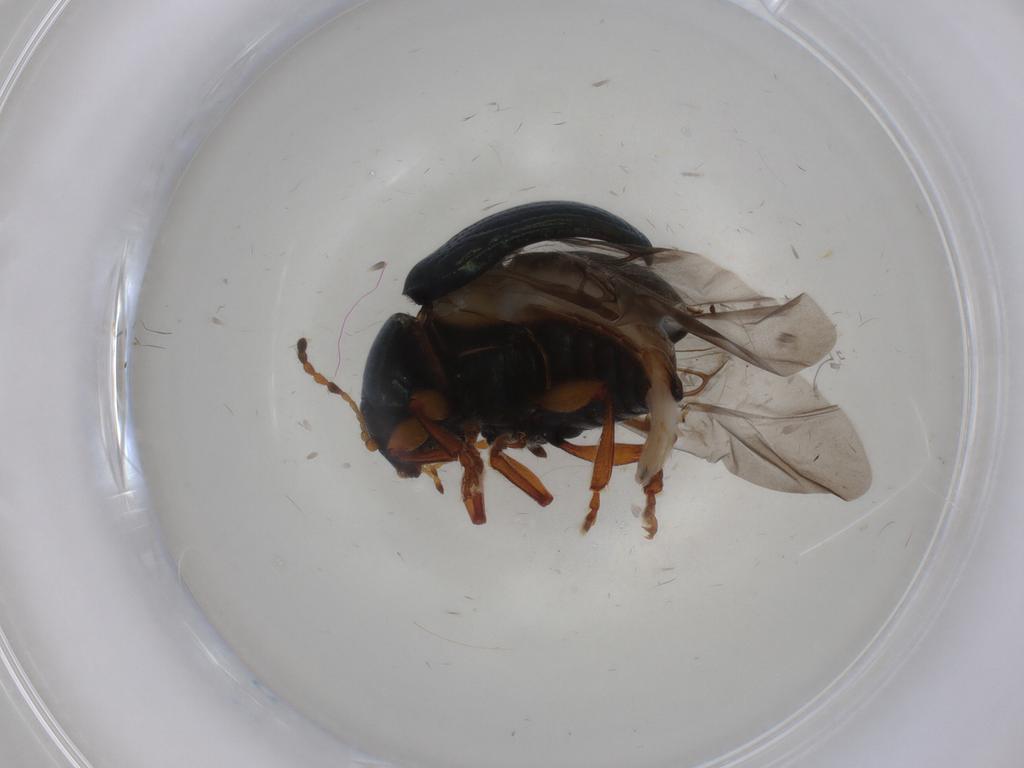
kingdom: Animalia
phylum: Arthropoda
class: Insecta
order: Coleoptera
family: Chrysomelidae
